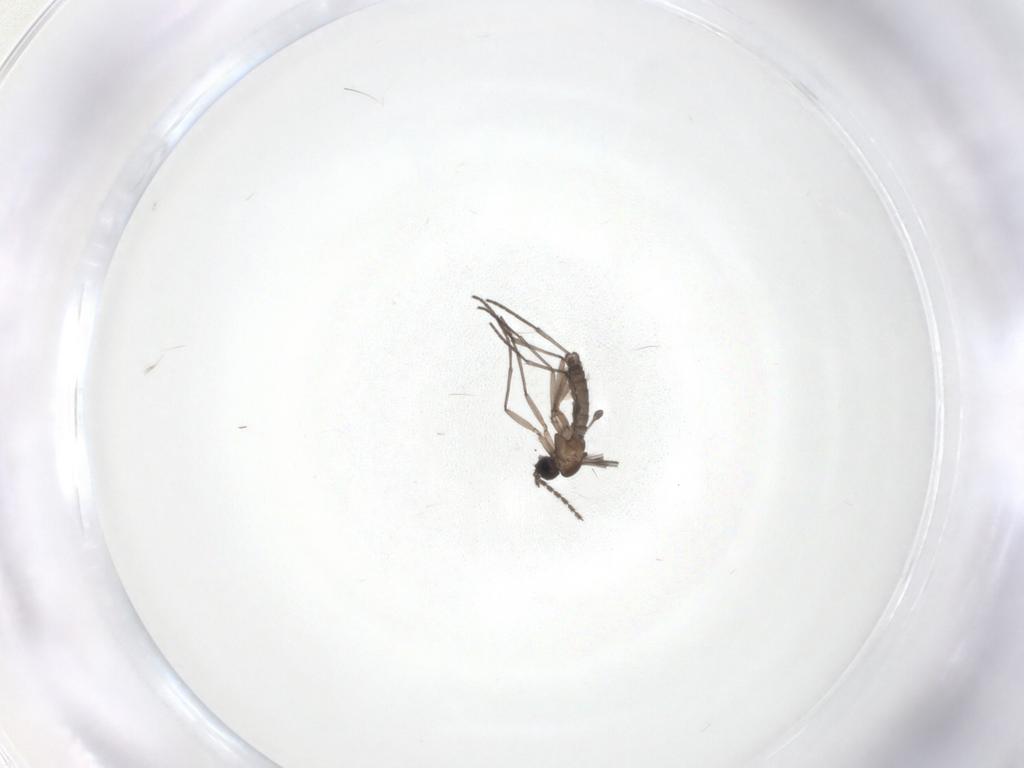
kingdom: Animalia
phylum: Arthropoda
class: Insecta
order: Diptera
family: Sciaridae
